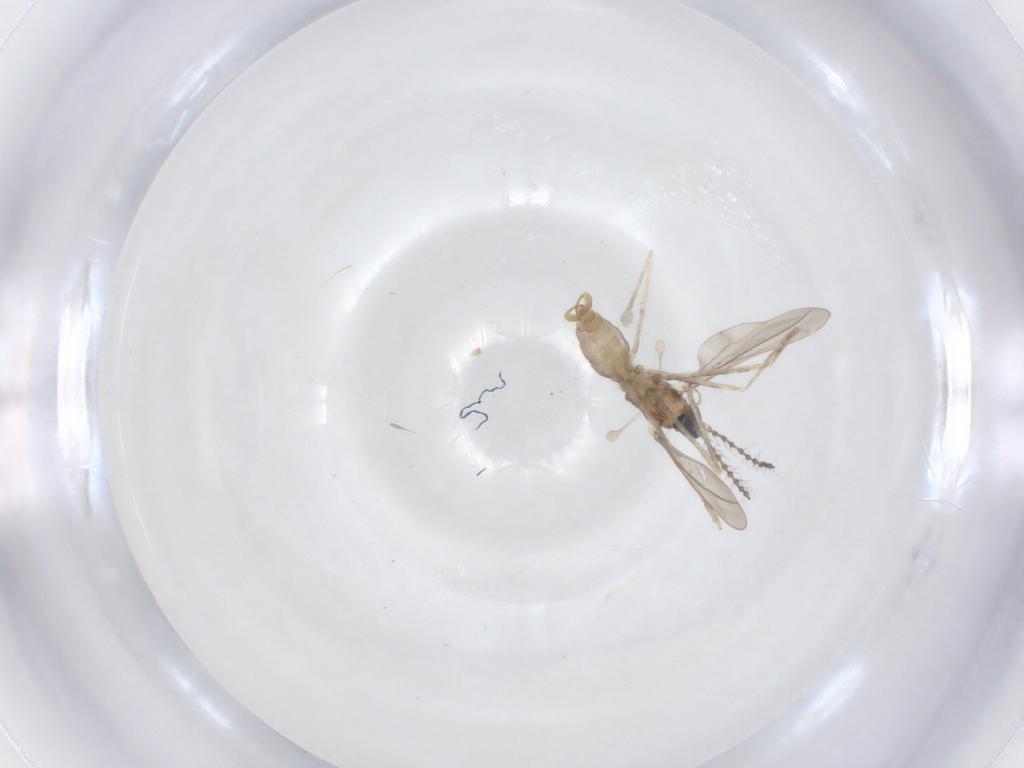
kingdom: Animalia
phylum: Arthropoda
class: Insecta
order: Diptera
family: Cecidomyiidae
